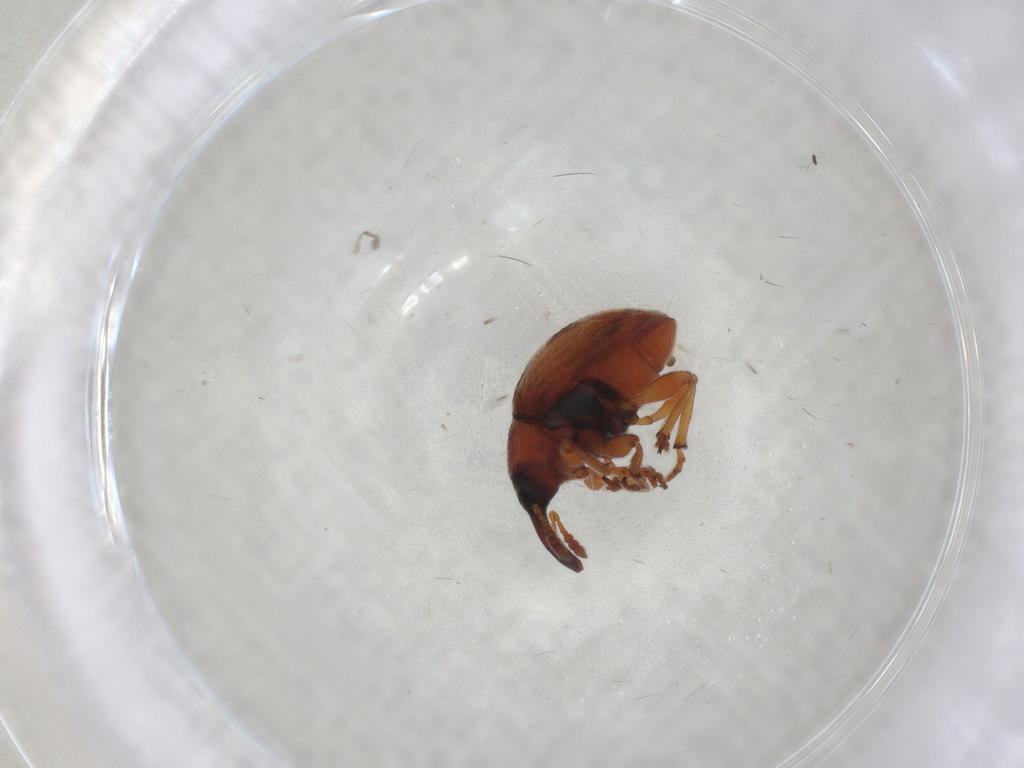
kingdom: Animalia
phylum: Arthropoda
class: Insecta
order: Coleoptera
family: Brentidae
